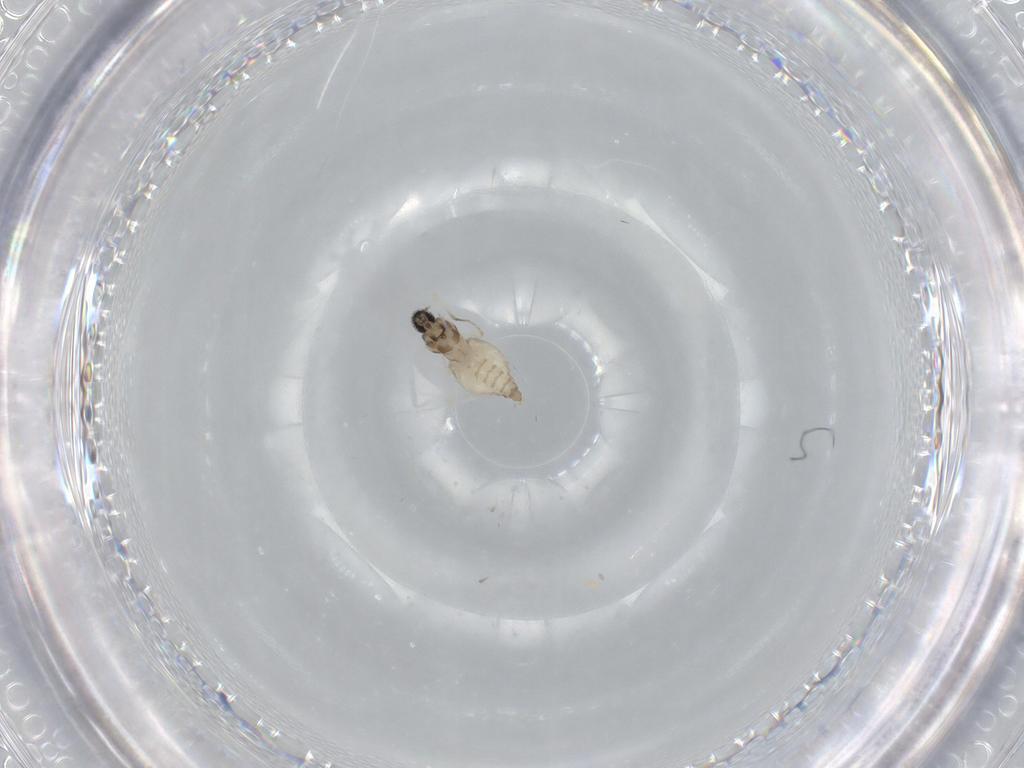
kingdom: Animalia
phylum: Arthropoda
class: Insecta
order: Diptera
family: Cecidomyiidae
